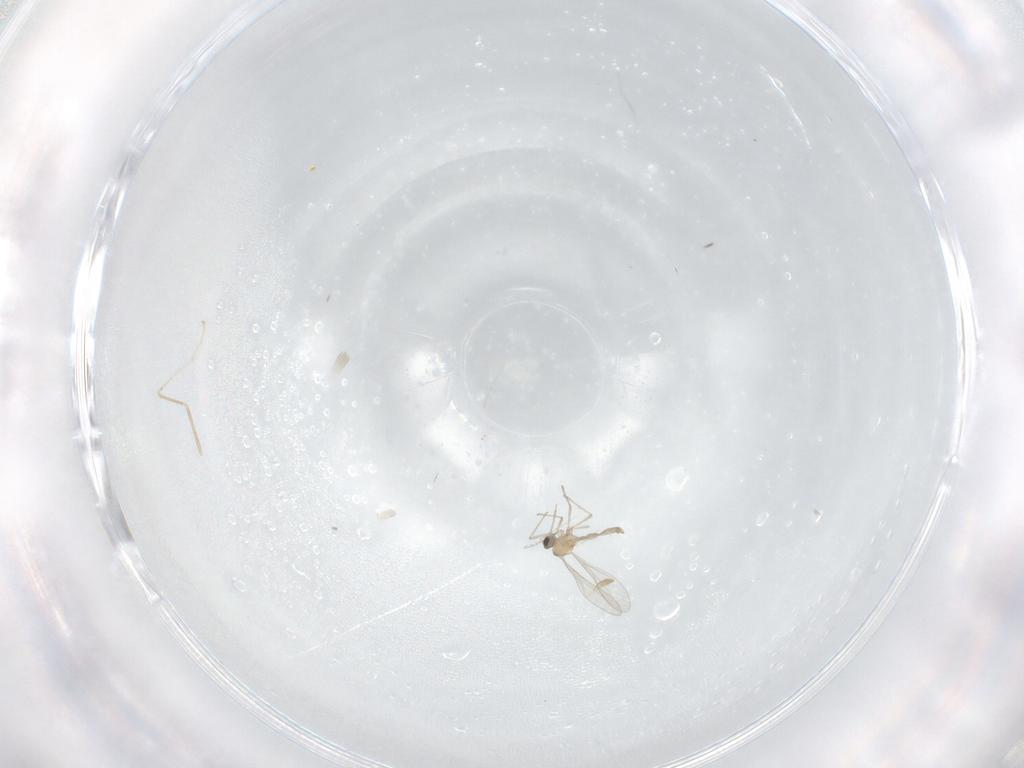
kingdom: Animalia
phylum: Arthropoda
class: Insecta
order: Diptera
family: Cecidomyiidae
